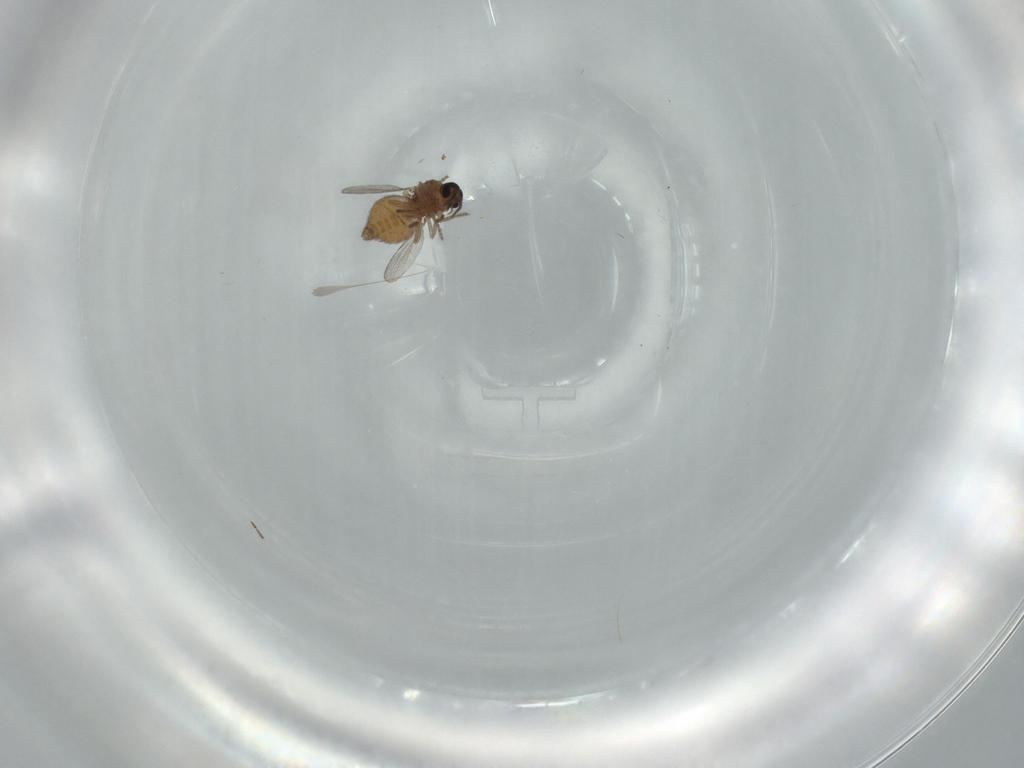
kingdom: Animalia
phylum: Arthropoda
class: Insecta
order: Diptera
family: Ceratopogonidae
